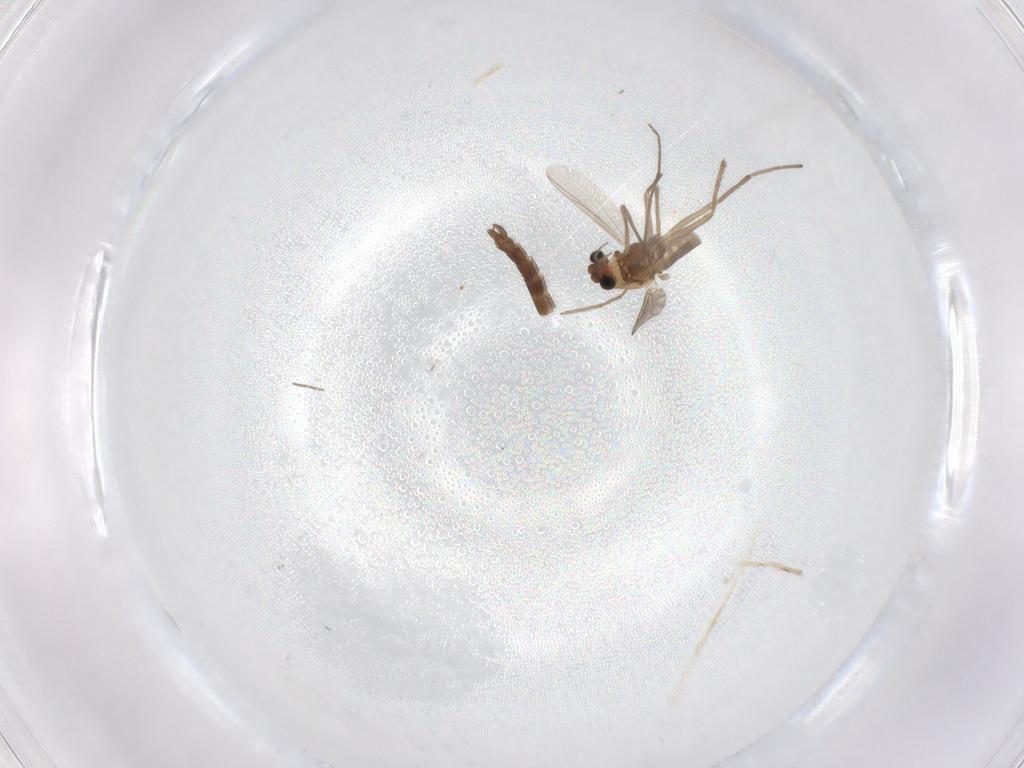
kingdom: Animalia
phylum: Arthropoda
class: Insecta
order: Diptera
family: Chironomidae
